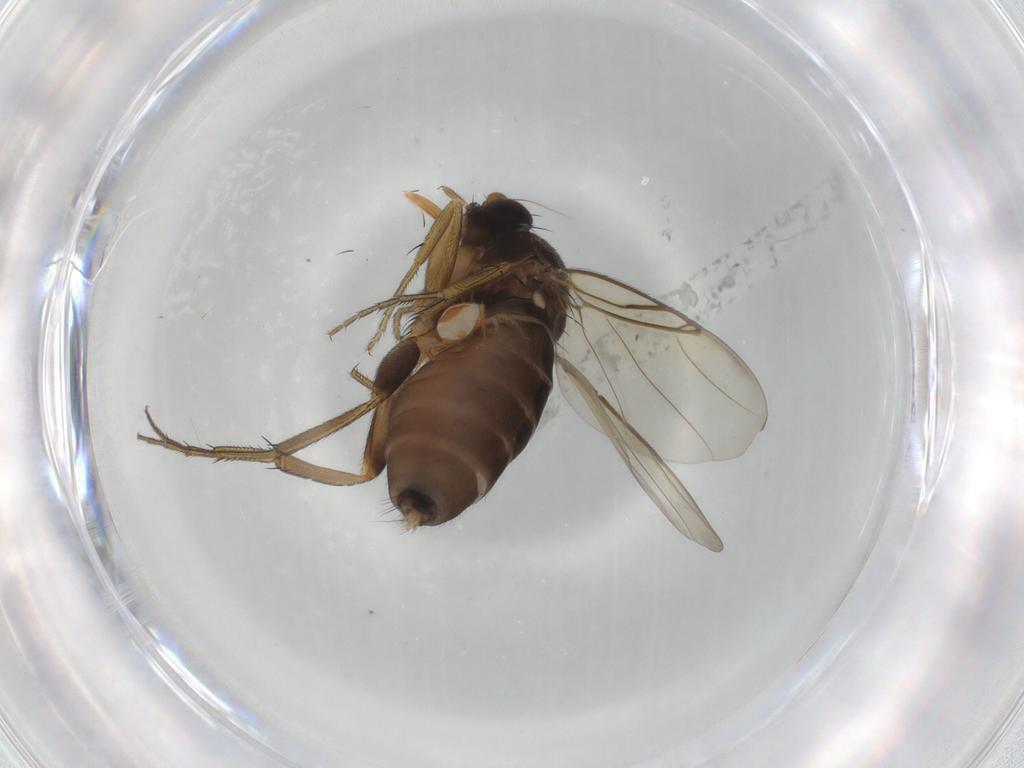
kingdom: Animalia
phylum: Arthropoda
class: Insecta
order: Diptera
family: Phoridae
